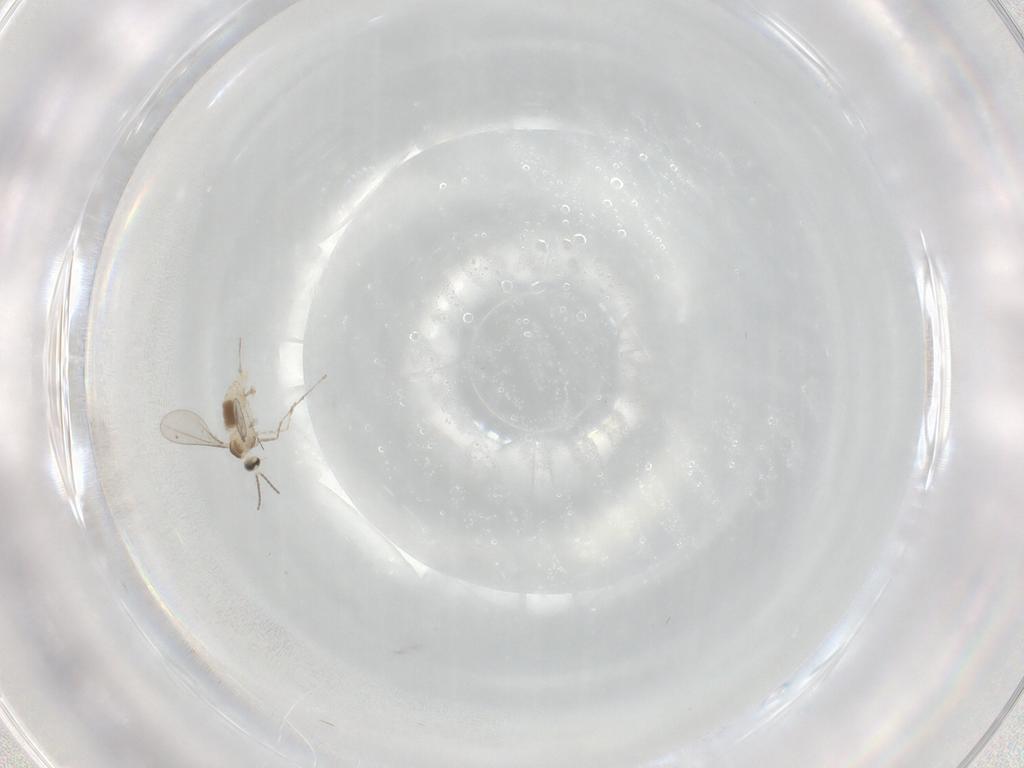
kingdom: Animalia
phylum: Arthropoda
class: Insecta
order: Diptera
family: Cecidomyiidae
